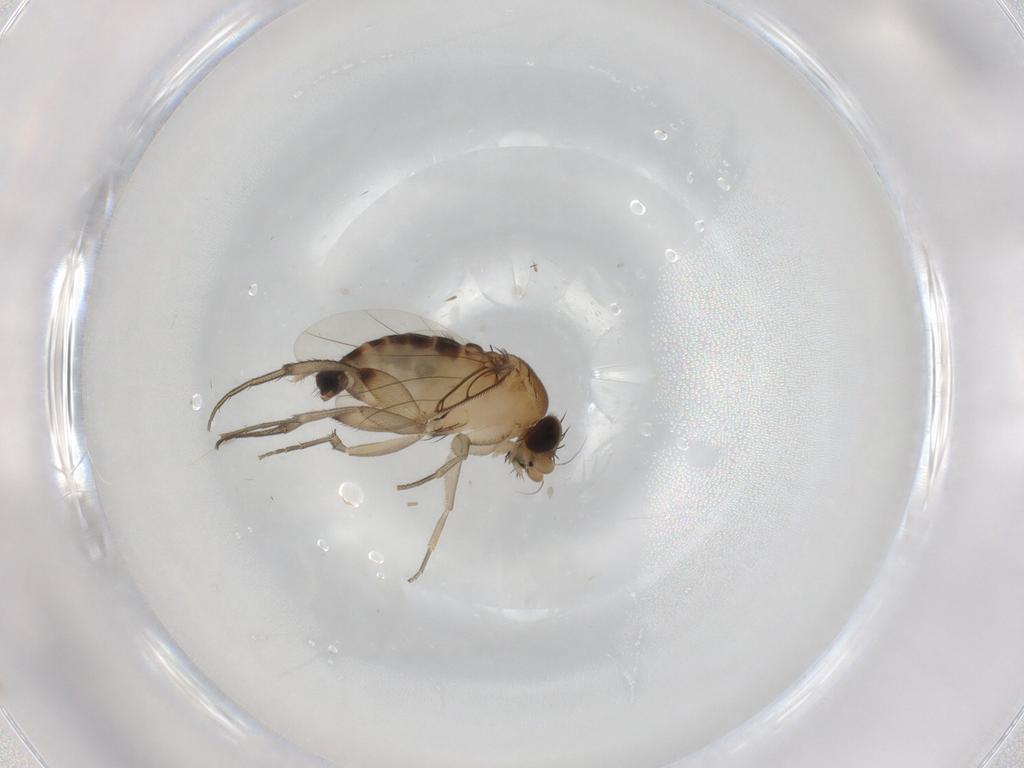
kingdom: Animalia
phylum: Arthropoda
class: Insecta
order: Diptera
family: Phoridae
